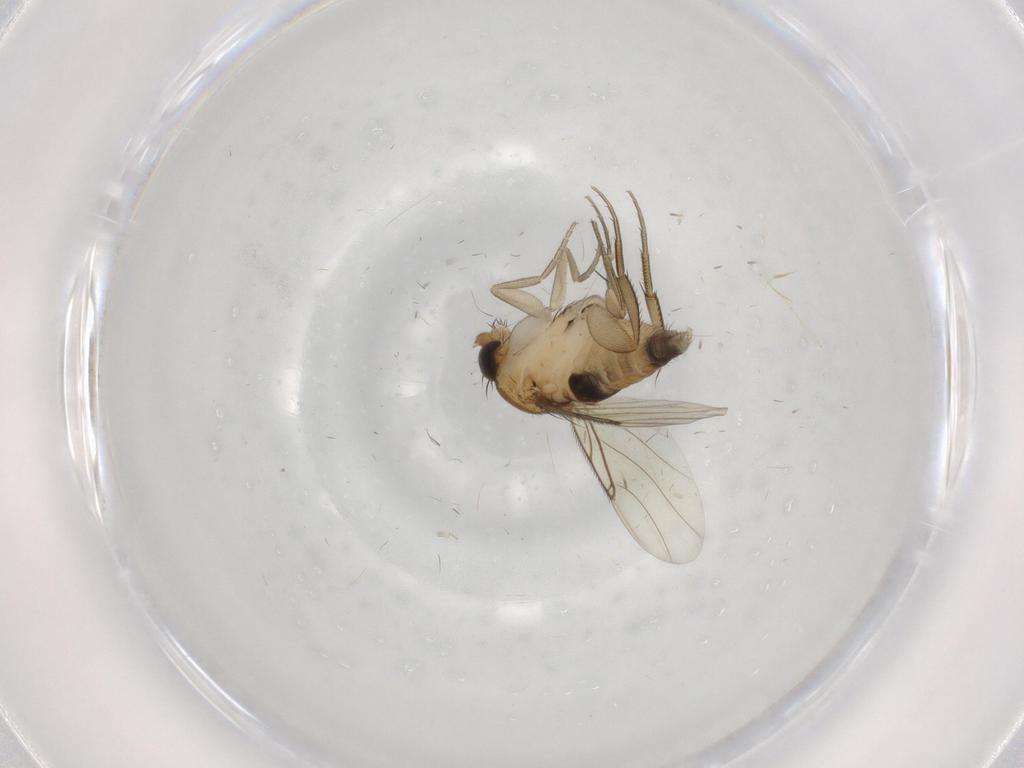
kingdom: Animalia
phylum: Arthropoda
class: Insecta
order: Diptera
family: Phoridae
